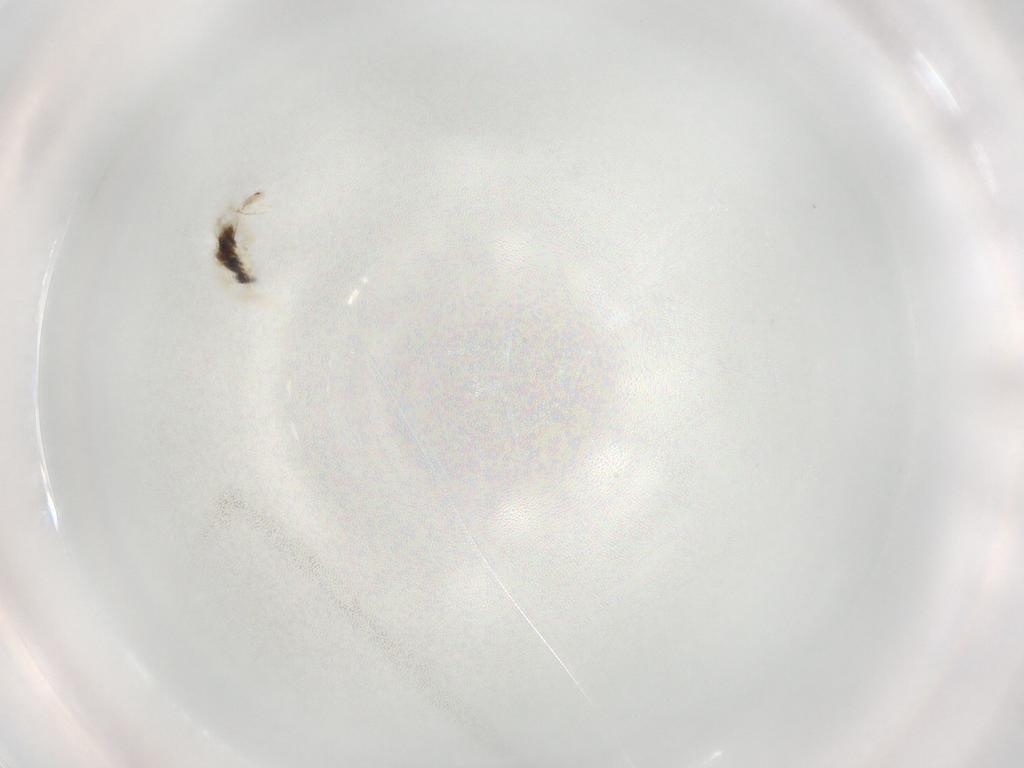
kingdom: Animalia
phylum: Arthropoda
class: Collembola
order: Entomobryomorpha
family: Entomobryidae
